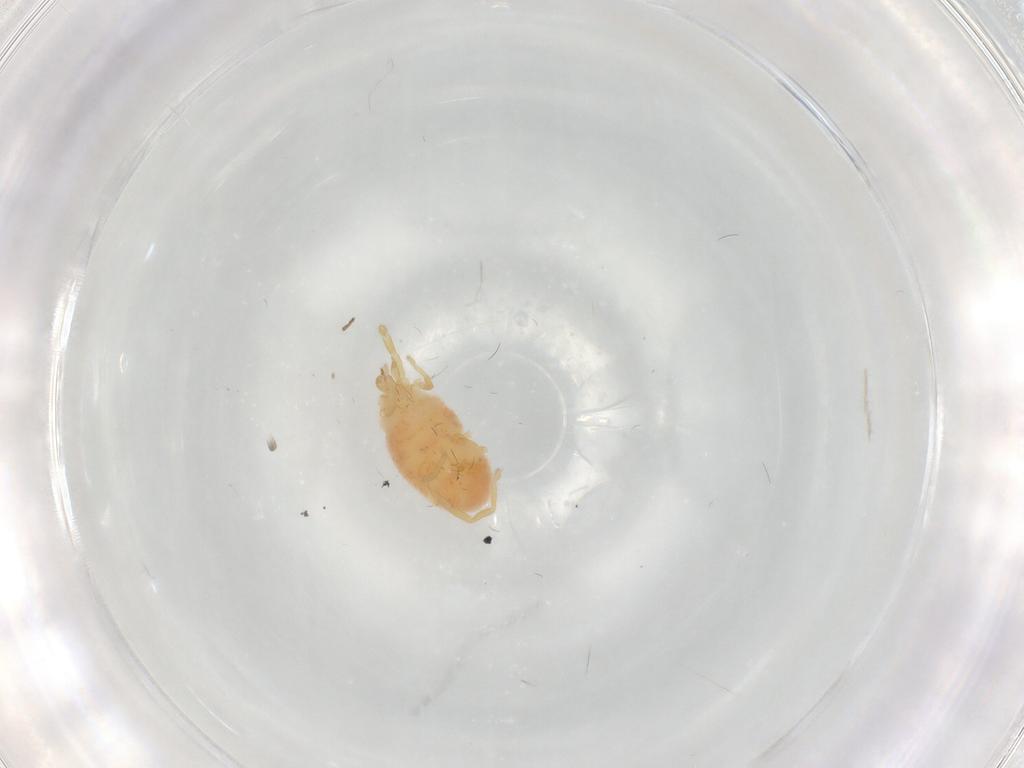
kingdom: Animalia
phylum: Arthropoda
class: Arachnida
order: Trombidiformes
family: Erythraeidae
